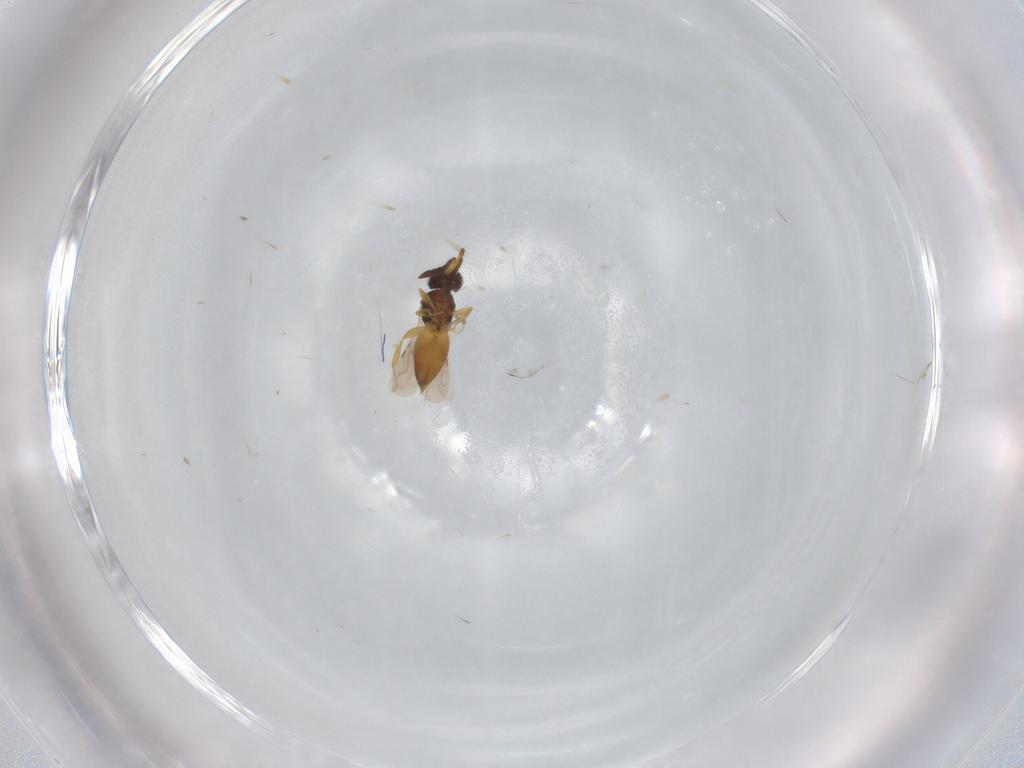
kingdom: Animalia
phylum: Arthropoda
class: Insecta
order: Hymenoptera
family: Ceraphronidae
